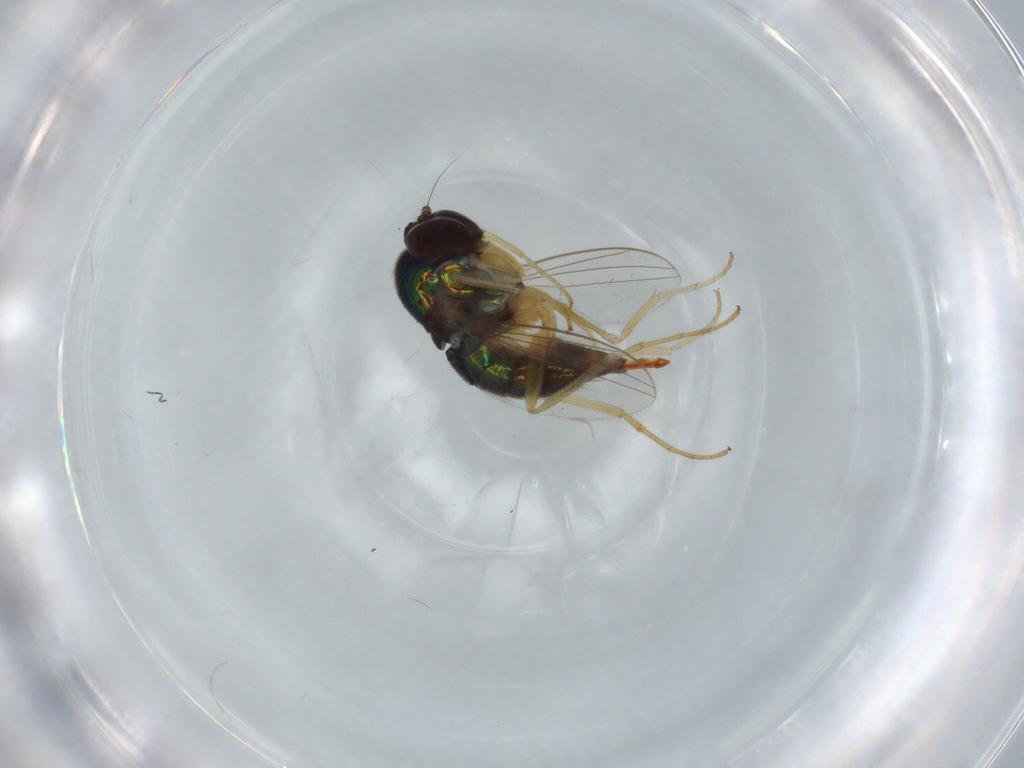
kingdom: Animalia
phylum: Arthropoda
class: Insecta
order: Diptera
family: Dolichopodidae
